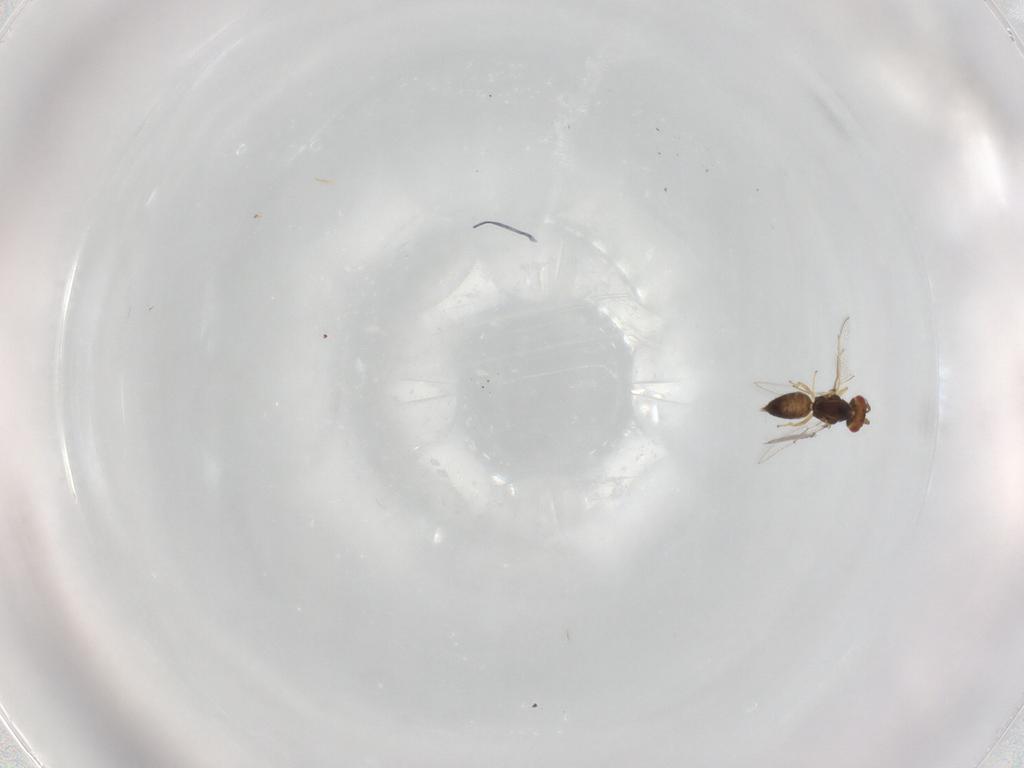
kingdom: Animalia
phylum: Arthropoda
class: Insecta
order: Hymenoptera
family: Eulophidae
